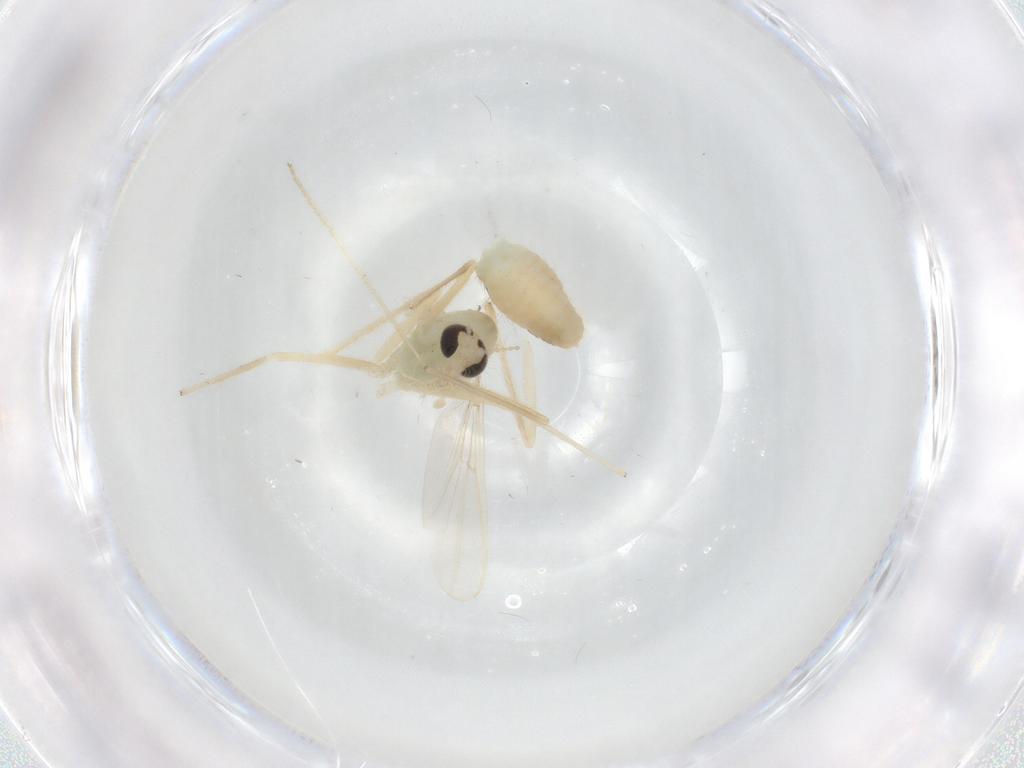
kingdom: Animalia
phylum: Arthropoda
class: Insecta
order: Diptera
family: Chironomidae
